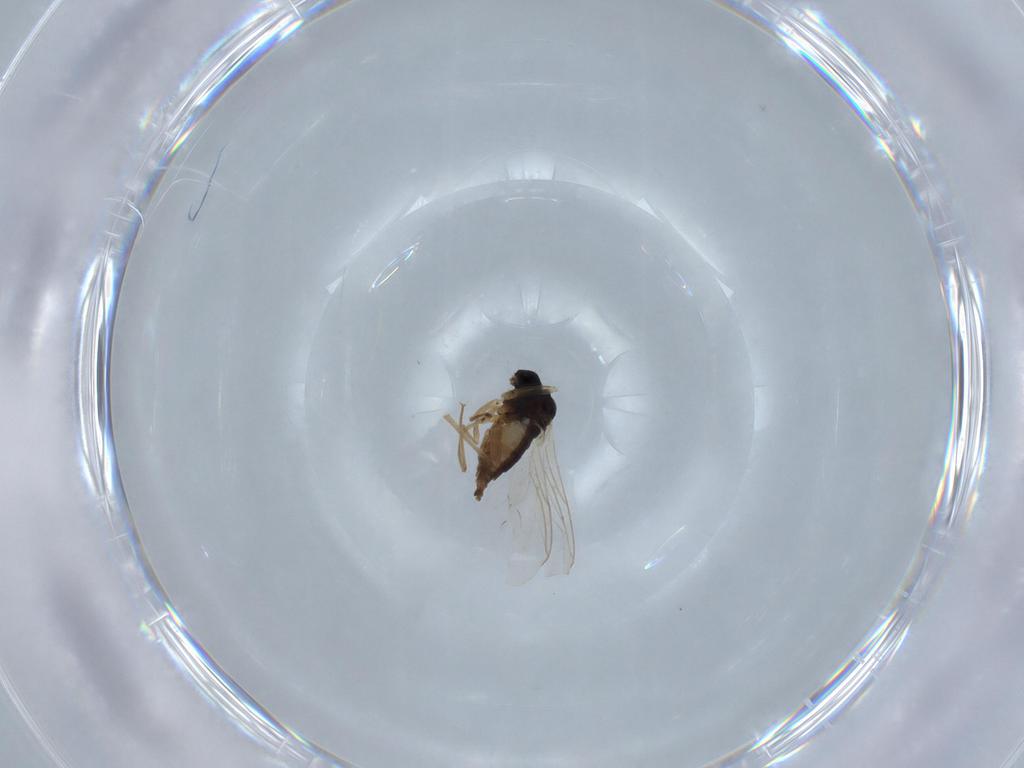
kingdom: Animalia
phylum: Arthropoda
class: Insecta
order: Diptera
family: Sciaridae
